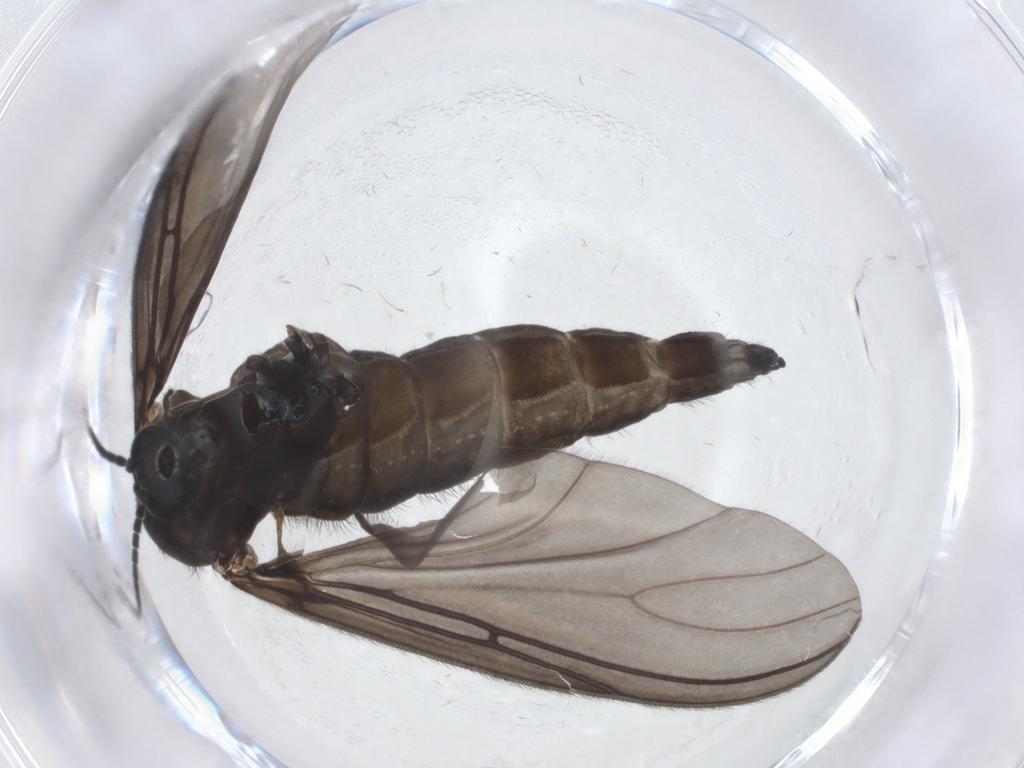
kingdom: Animalia
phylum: Arthropoda
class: Insecta
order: Diptera
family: Sciaridae
